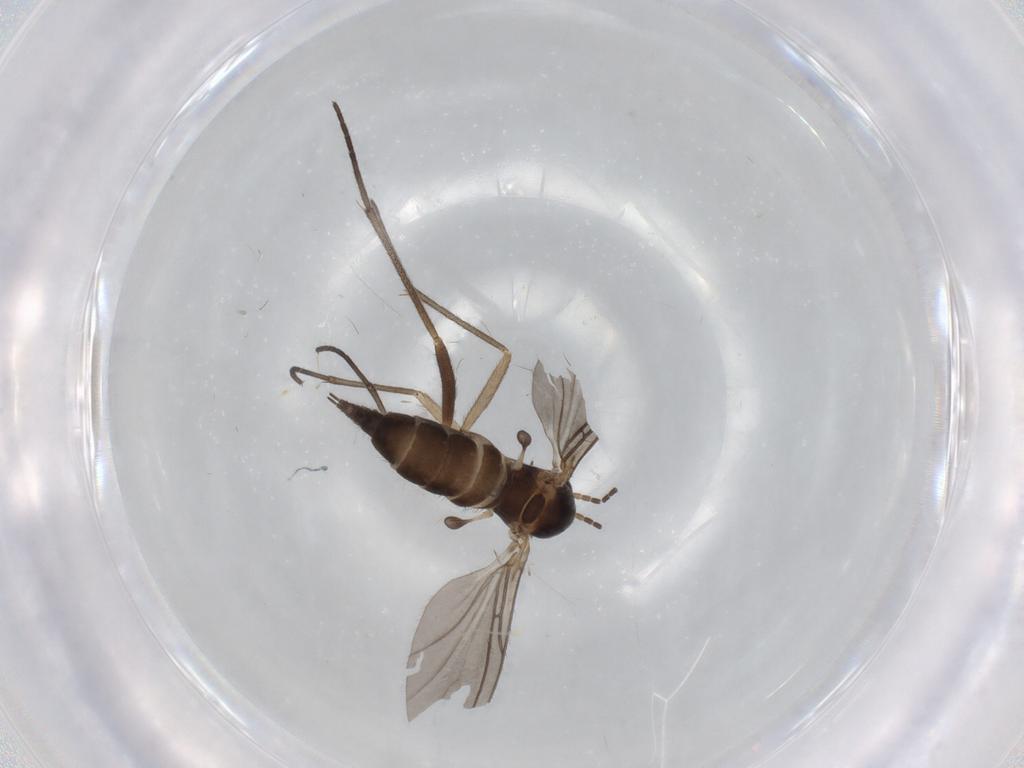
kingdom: Animalia
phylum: Arthropoda
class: Insecta
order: Diptera
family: Sciaridae
